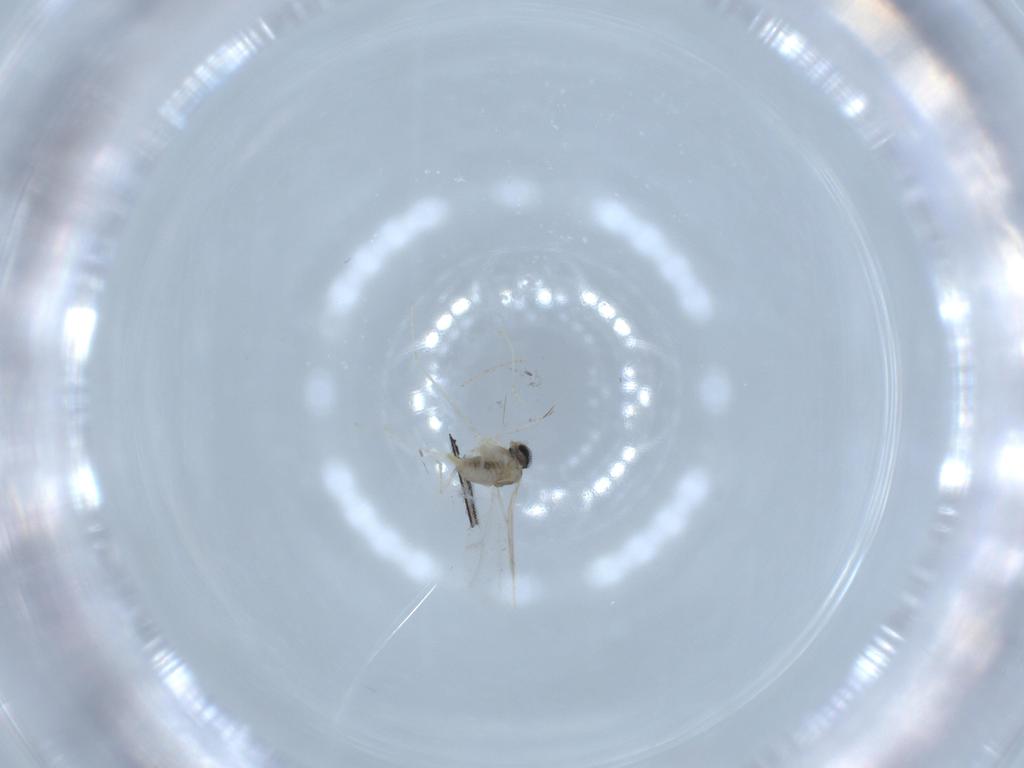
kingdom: Animalia
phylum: Arthropoda
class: Insecta
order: Diptera
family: Cecidomyiidae
